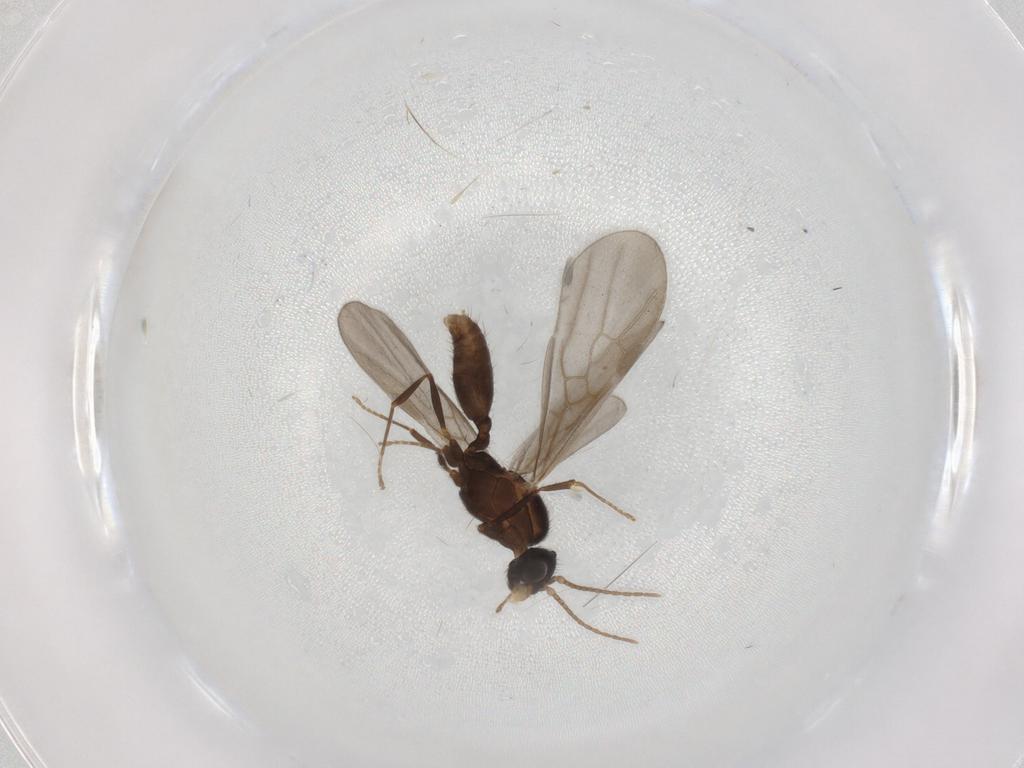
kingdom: Animalia
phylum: Arthropoda
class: Insecta
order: Hymenoptera
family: Formicidae
